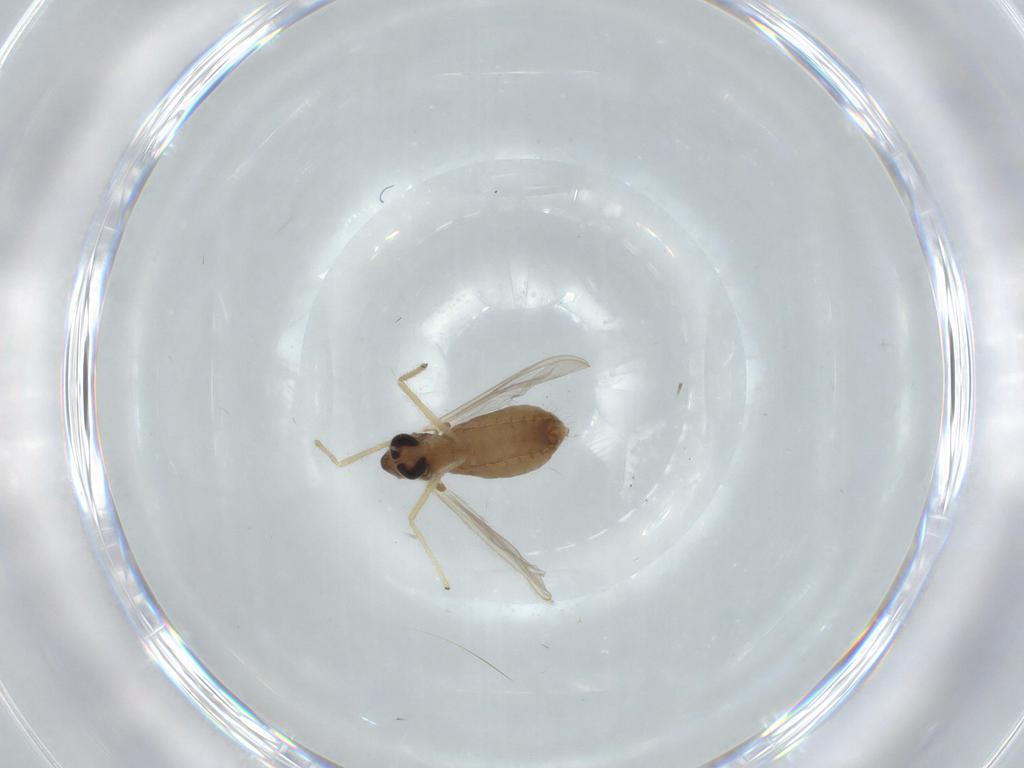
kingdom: Animalia
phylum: Arthropoda
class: Insecta
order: Diptera
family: Chironomidae
